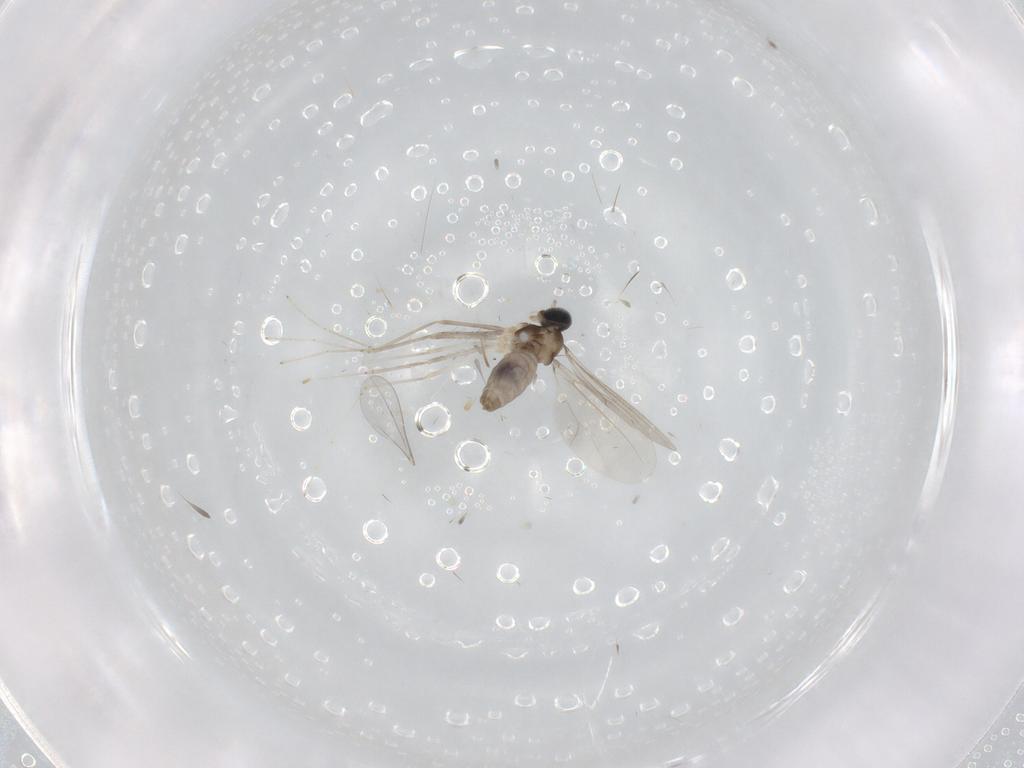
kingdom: Animalia
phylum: Arthropoda
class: Insecta
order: Diptera
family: Cecidomyiidae
